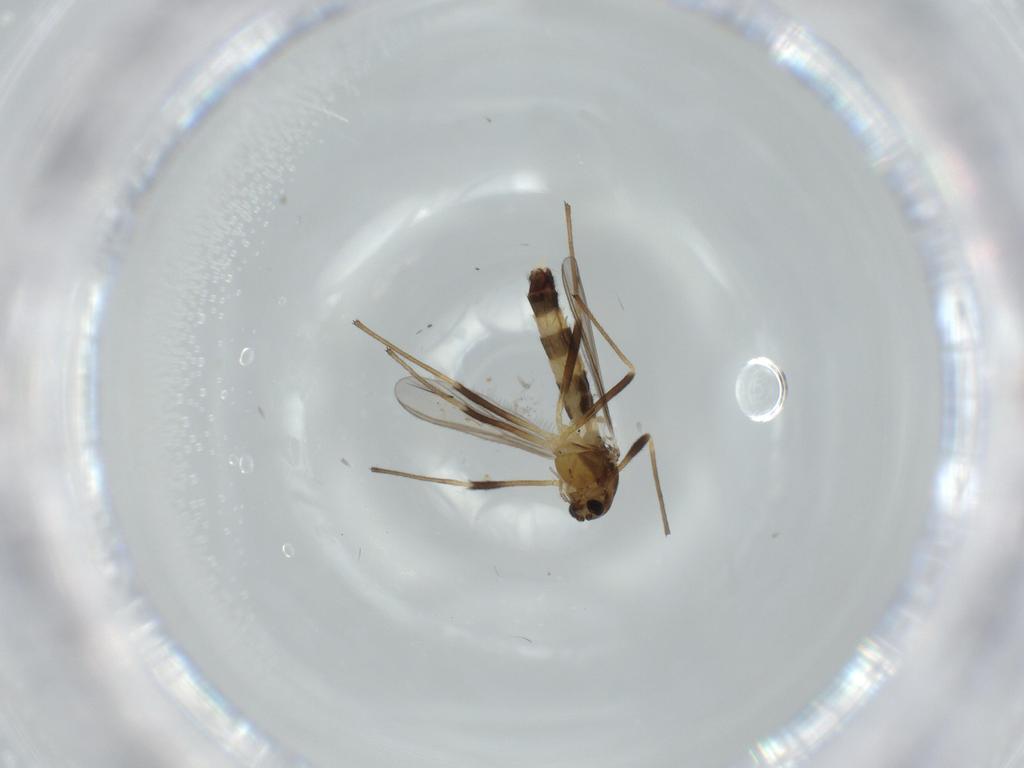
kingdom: Animalia
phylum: Arthropoda
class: Insecta
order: Diptera
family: Chironomidae
